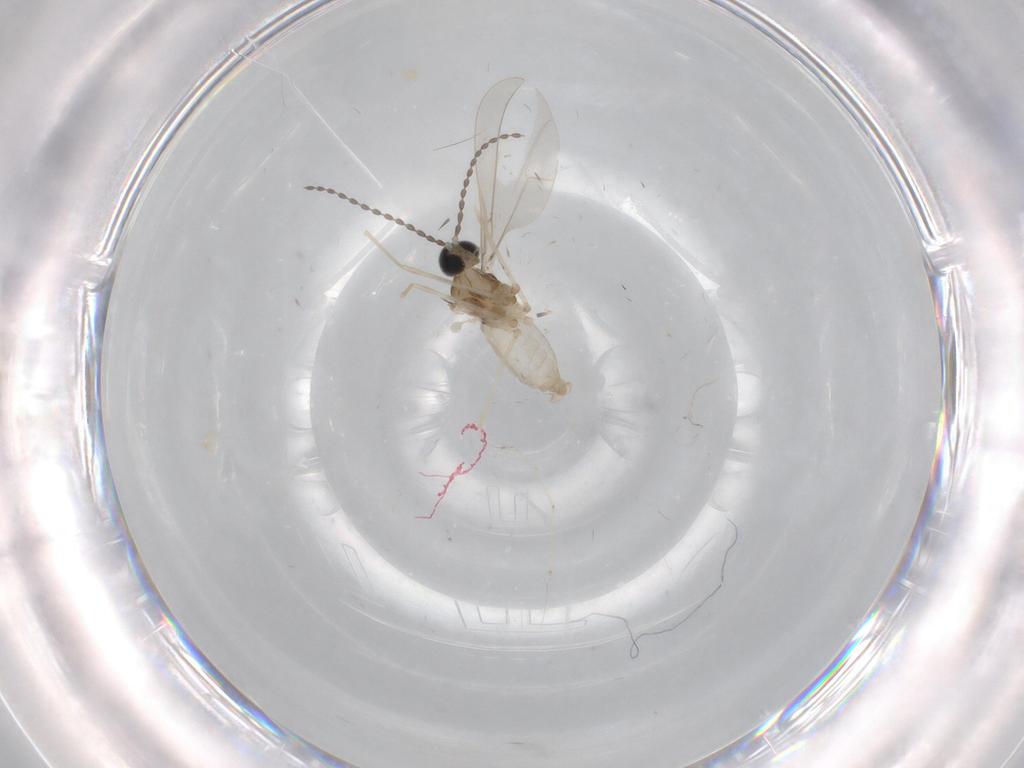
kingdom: Animalia
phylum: Arthropoda
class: Insecta
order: Diptera
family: Cecidomyiidae
